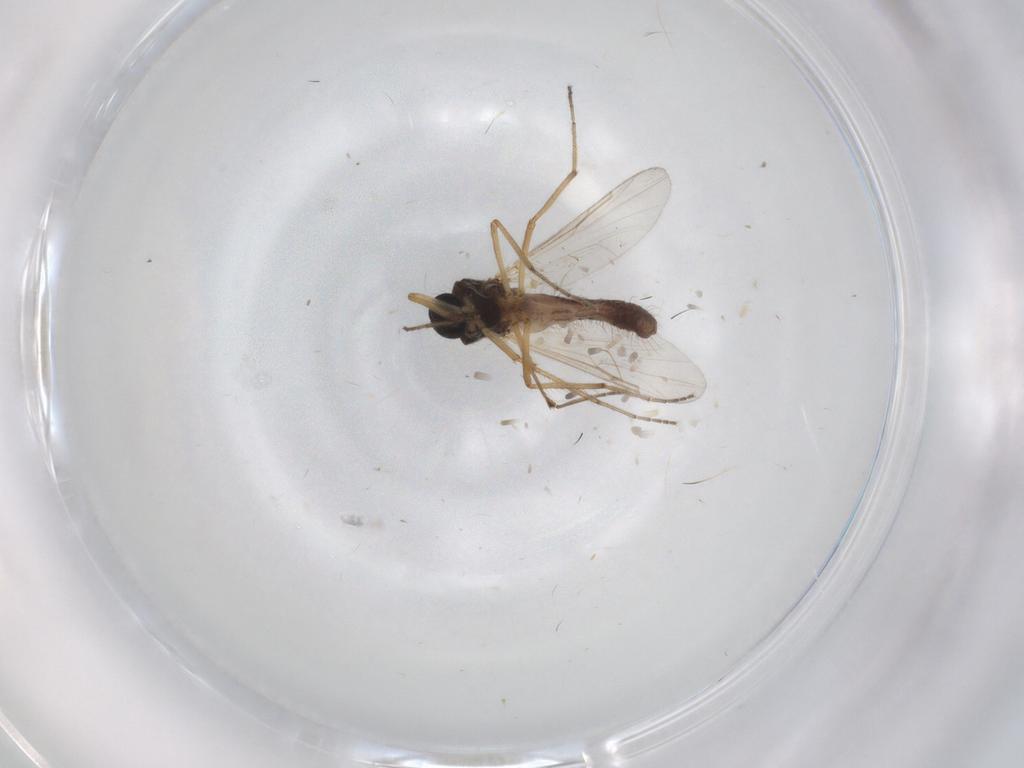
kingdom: Animalia
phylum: Arthropoda
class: Insecta
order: Diptera
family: Ceratopogonidae
